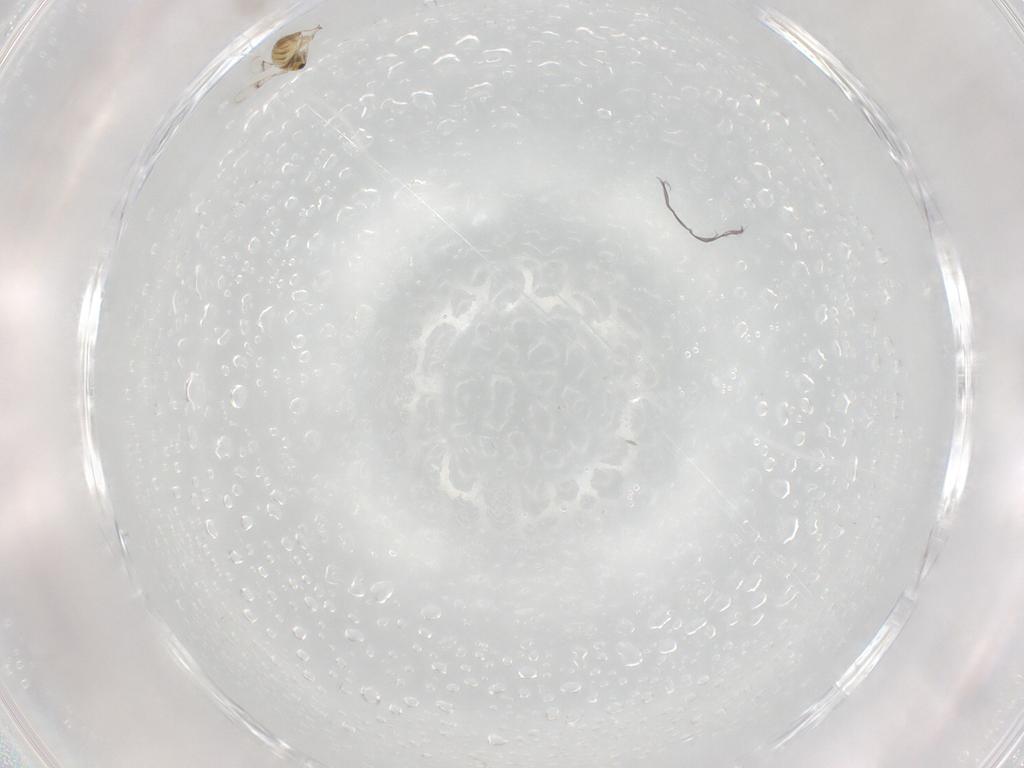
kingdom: Animalia
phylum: Arthropoda
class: Insecta
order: Hymenoptera
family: Trichogrammatidae
